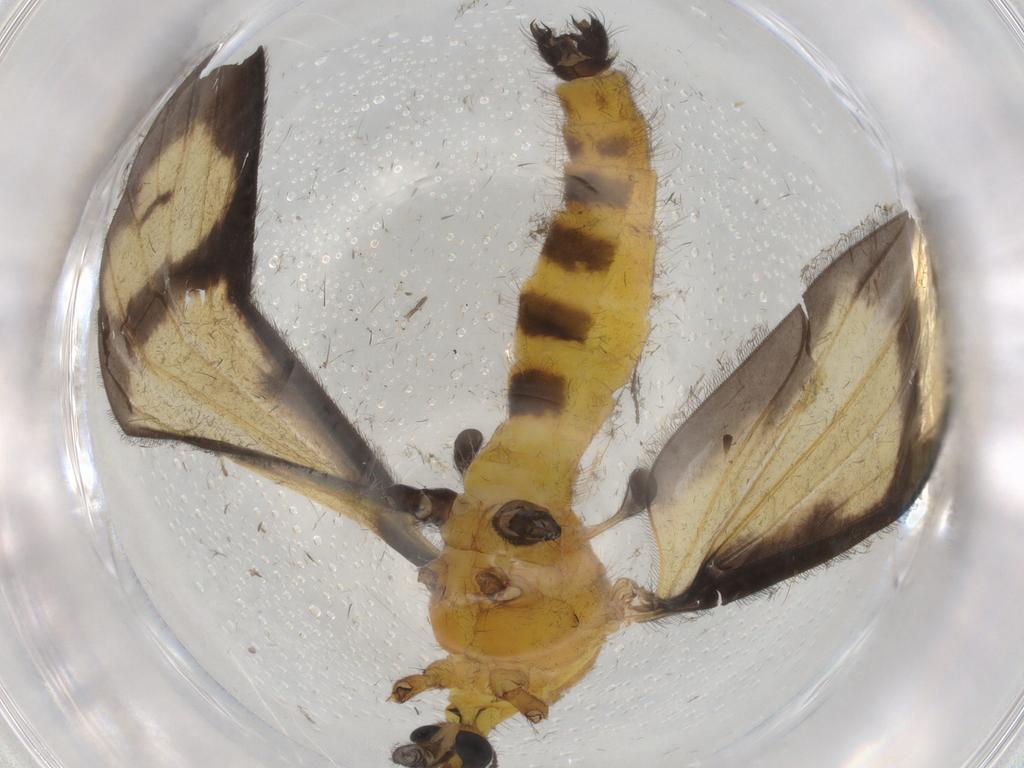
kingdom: Animalia
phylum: Arthropoda
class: Insecta
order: Diptera
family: Limoniidae
